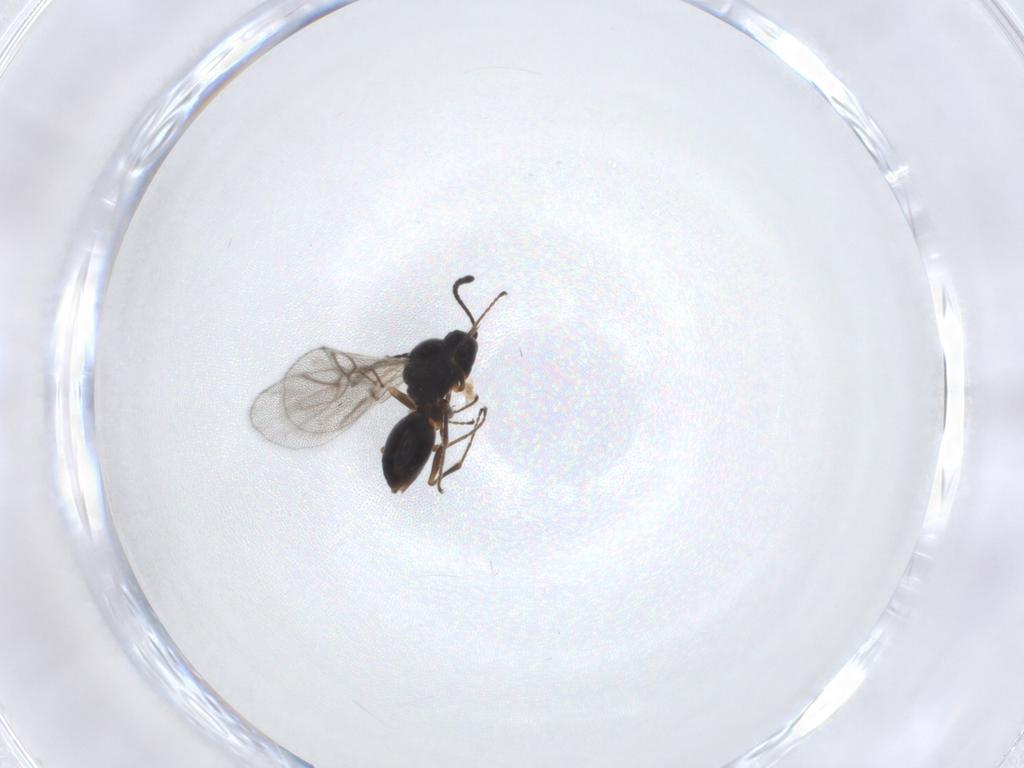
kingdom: Animalia
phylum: Arthropoda
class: Insecta
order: Hymenoptera
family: Figitidae
